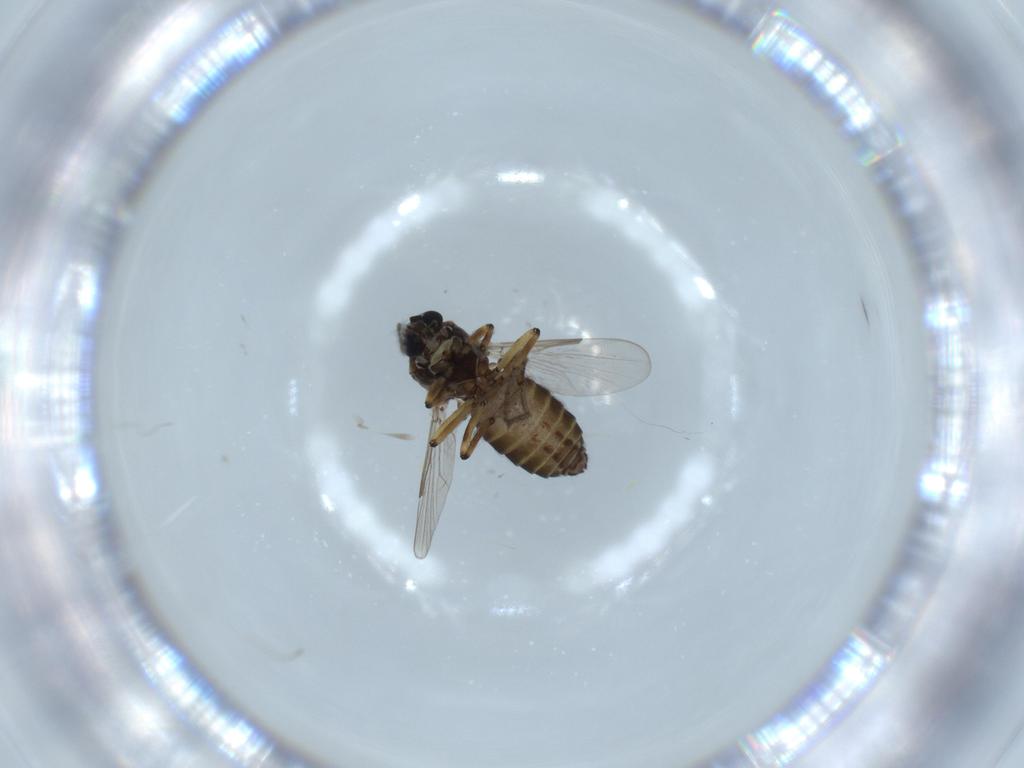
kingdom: Animalia
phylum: Arthropoda
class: Insecta
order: Diptera
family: Ceratopogonidae
